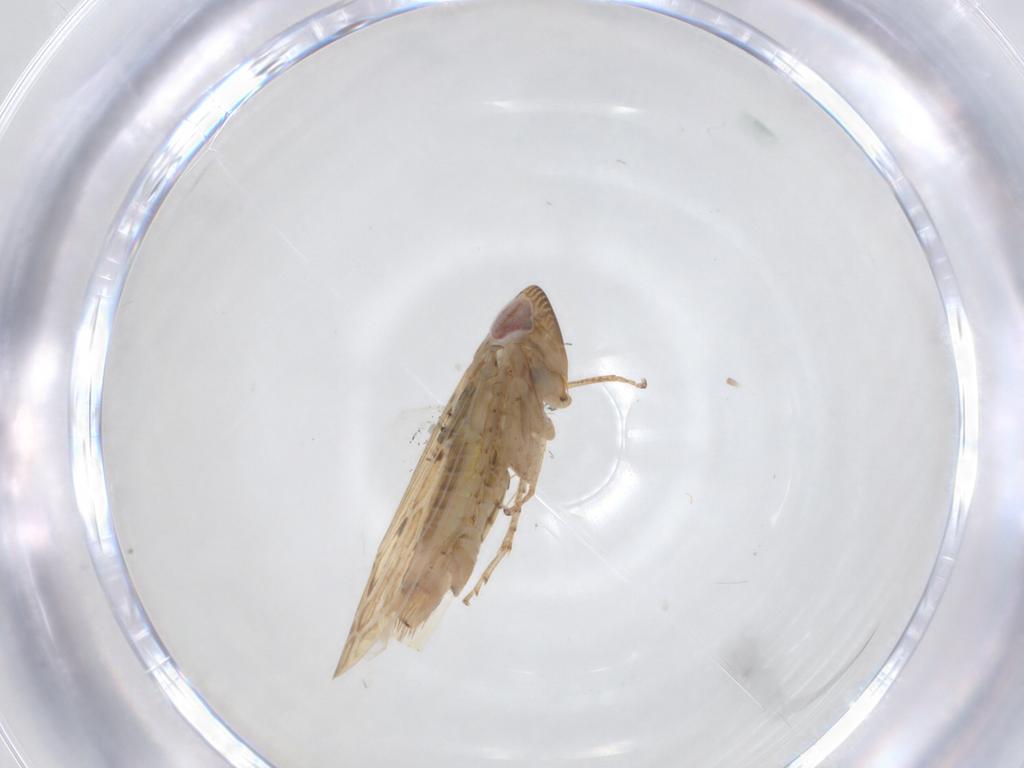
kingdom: Animalia
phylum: Arthropoda
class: Insecta
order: Hemiptera
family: Cicadellidae
